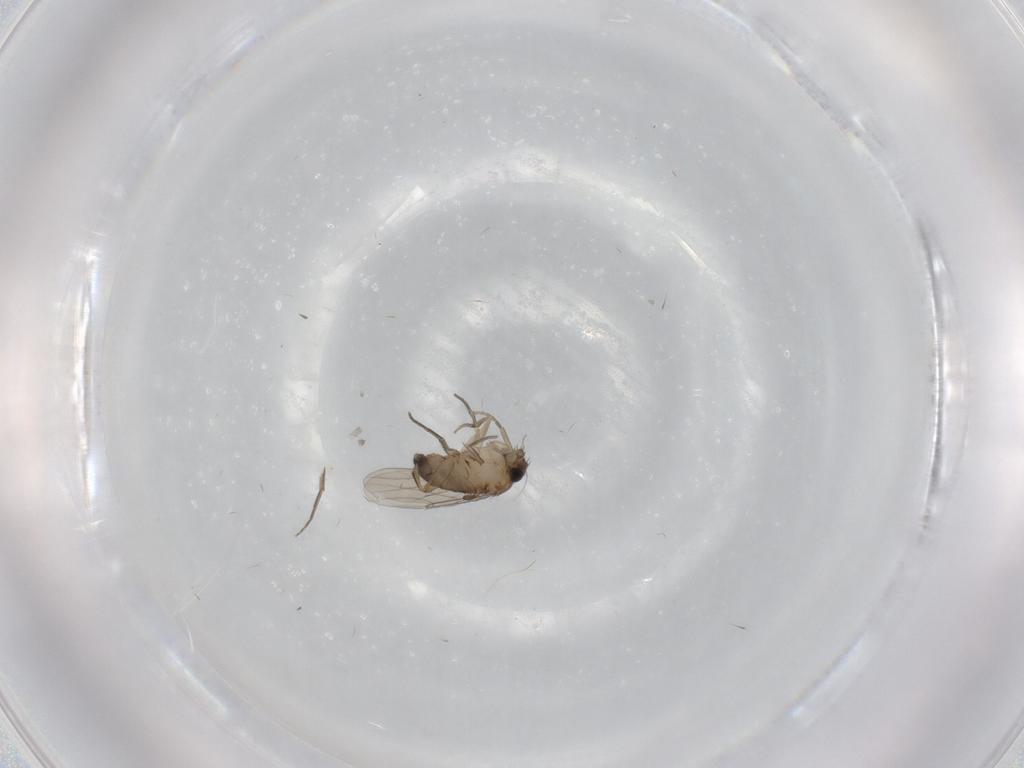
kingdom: Animalia
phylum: Arthropoda
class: Insecta
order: Diptera
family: Phoridae
